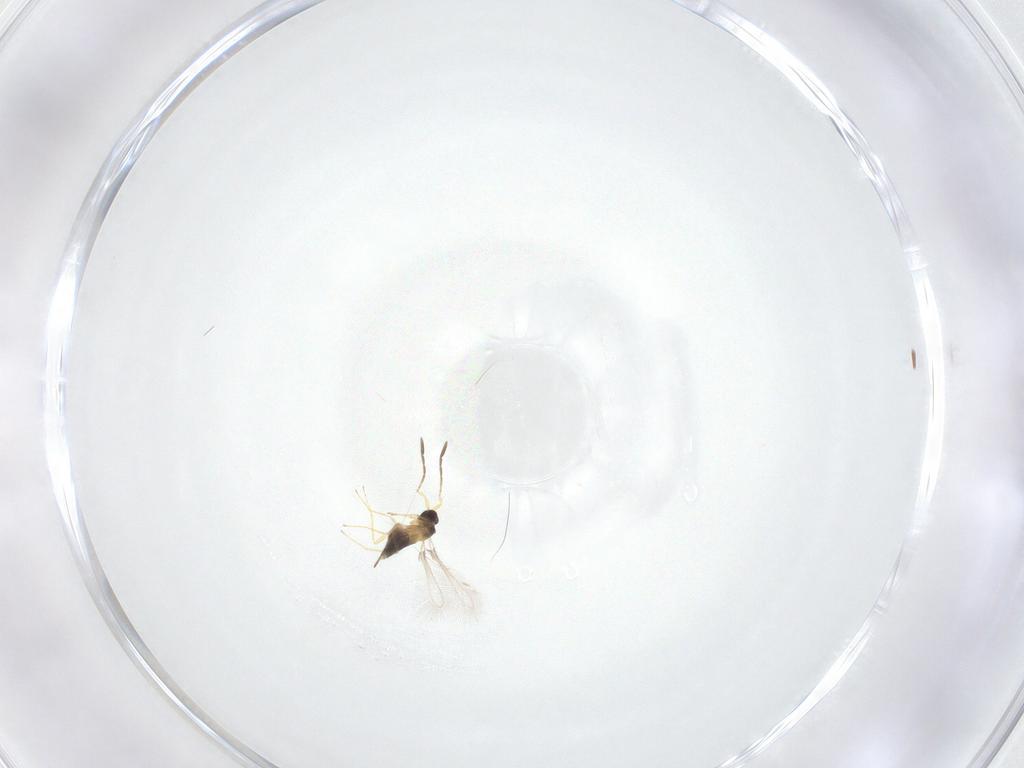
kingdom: Animalia
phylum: Arthropoda
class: Insecta
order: Hymenoptera
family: Mymaridae
